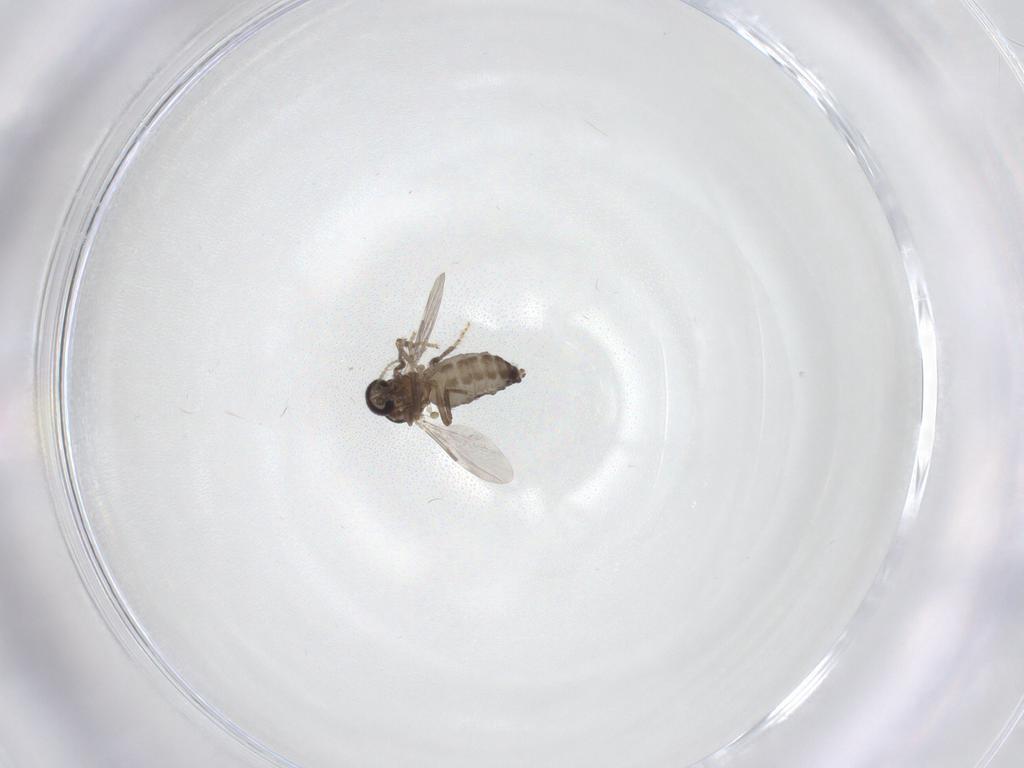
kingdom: Animalia
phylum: Arthropoda
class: Insecta
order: Diptera
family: Ceratopogonidae
